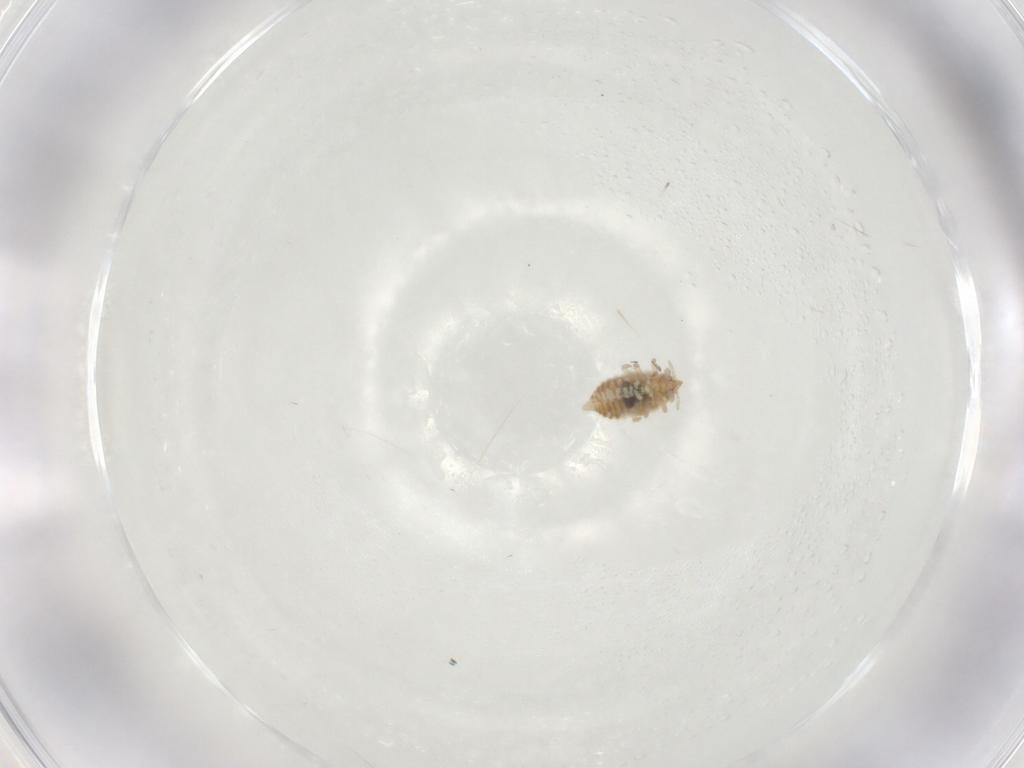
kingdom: Animalia
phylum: Arthropoda
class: Insecta
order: Neuroptera
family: Coniopterygidae
